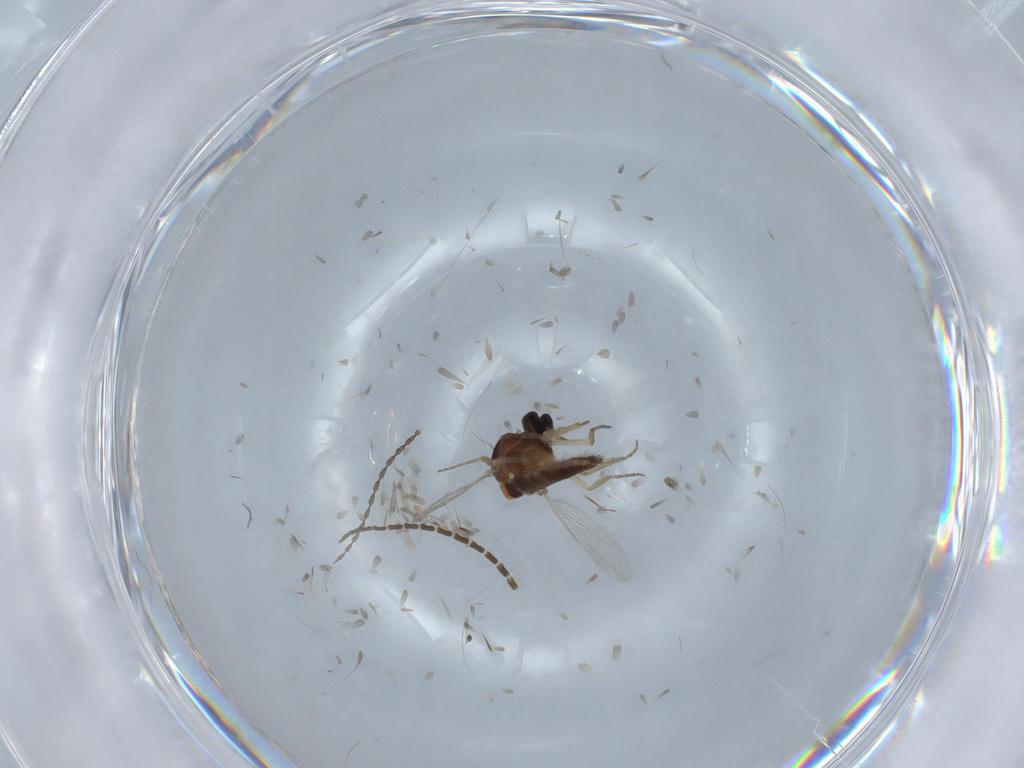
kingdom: Animalia
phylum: Arthropoda
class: Insecta
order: Diptera
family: Ceratopogonidae
